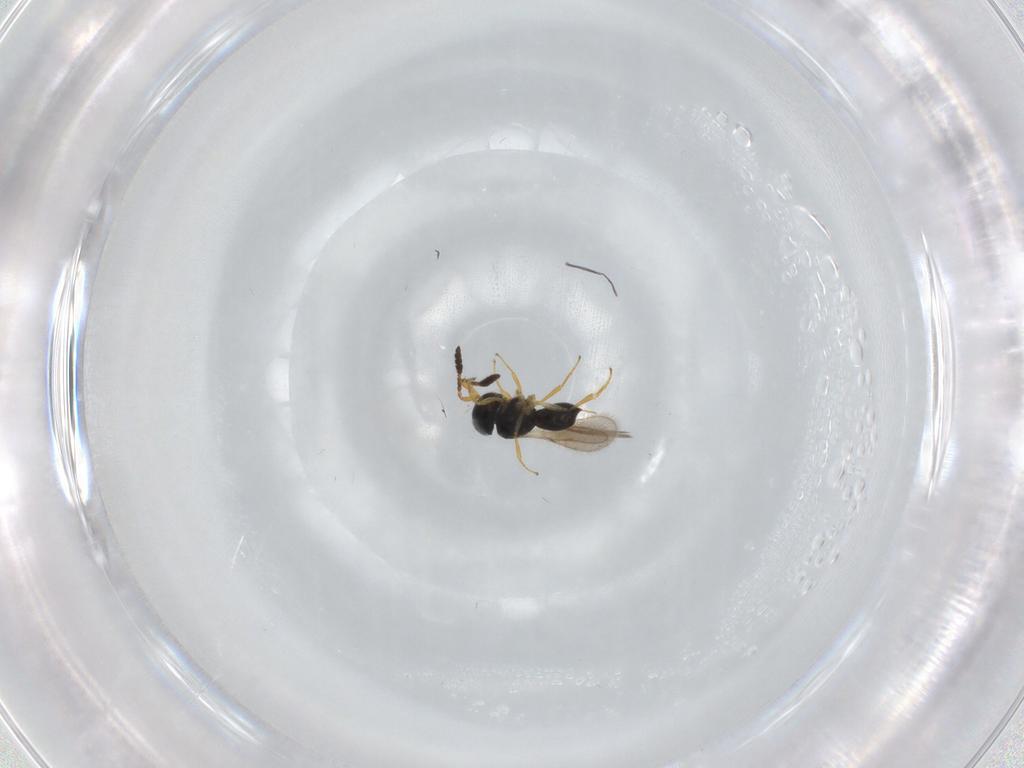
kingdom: Animalia
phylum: Arthropoda
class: Insecta
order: Hymenoptera
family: Scelionidae
